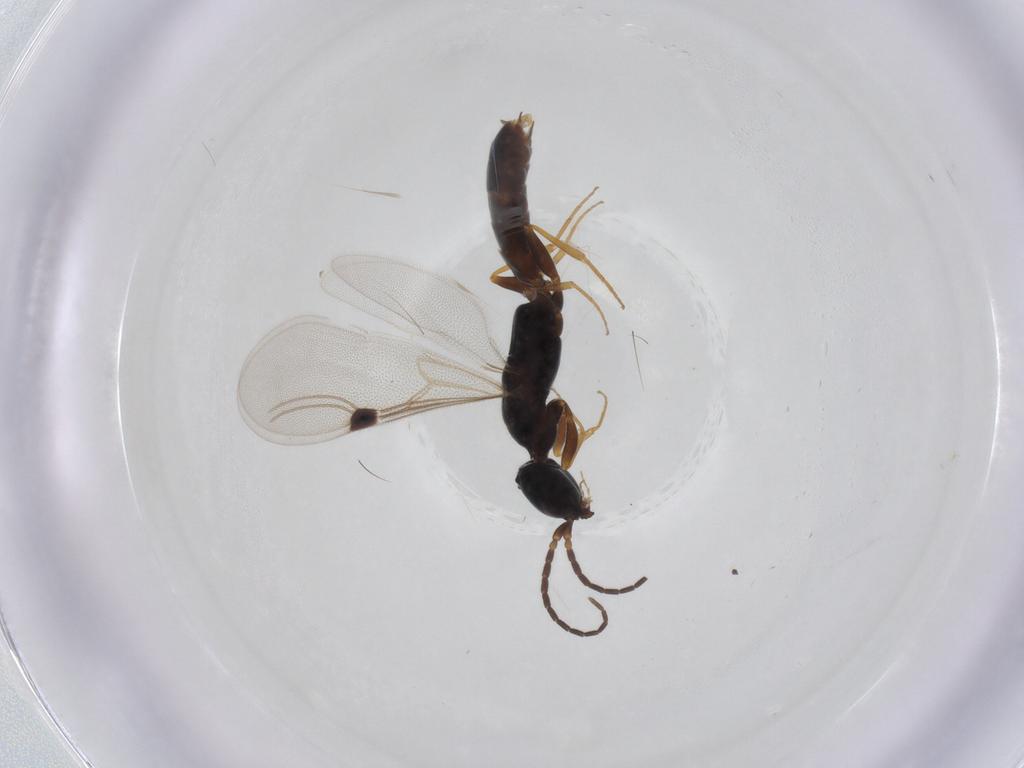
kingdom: Animalia
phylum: Arthropoda
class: Insecta
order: Hymenoptera
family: Bethylidae
